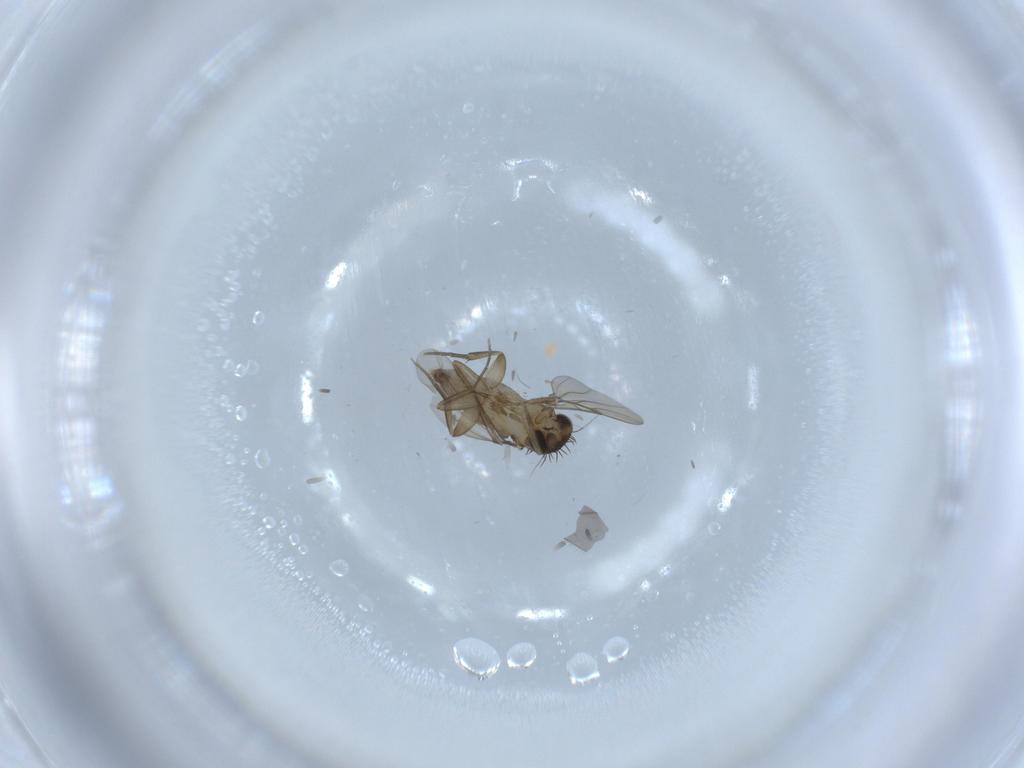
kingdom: Animalia
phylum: Arthropoda
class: Insecta
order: Diptera
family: Phoridae
